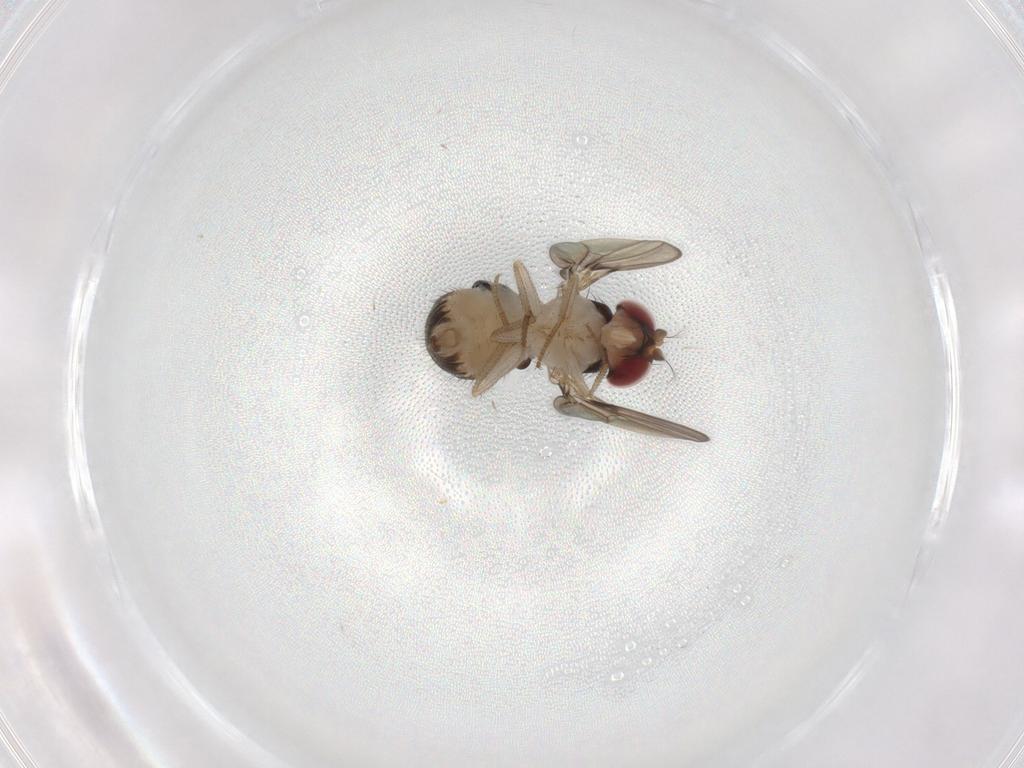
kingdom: Animalia
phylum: Arthropoda
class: Insecta
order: Diptera
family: Drosophilidae
